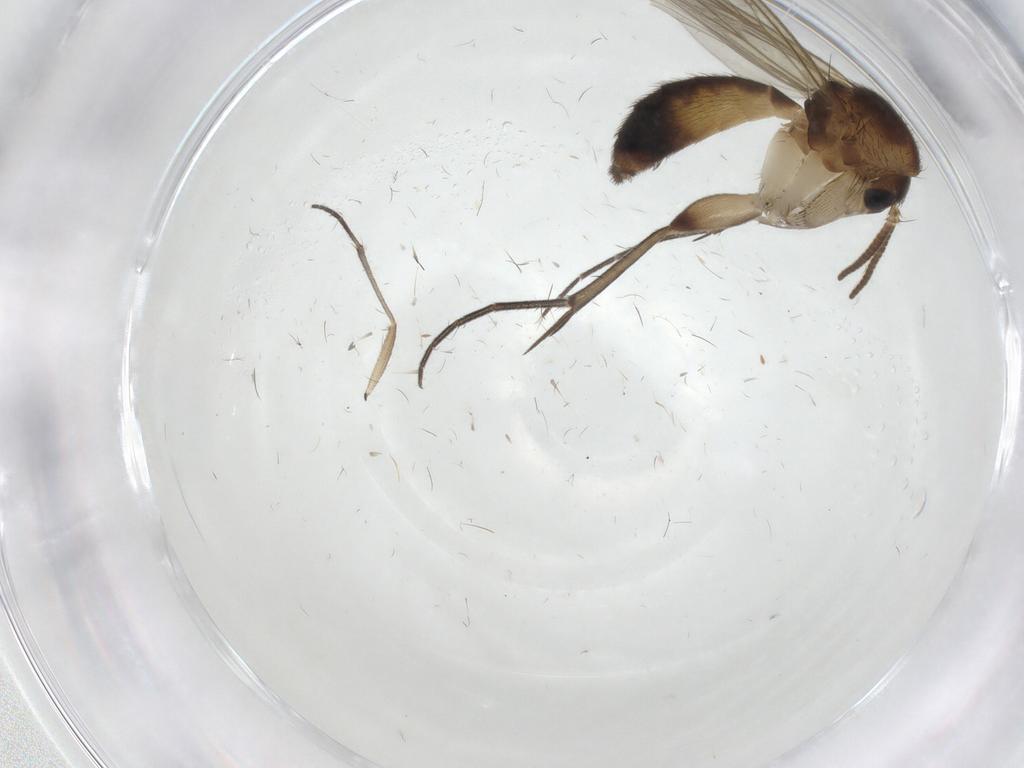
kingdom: Animalia
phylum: Arthropoda
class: Insecta
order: Diptera
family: Mycetophilidae
